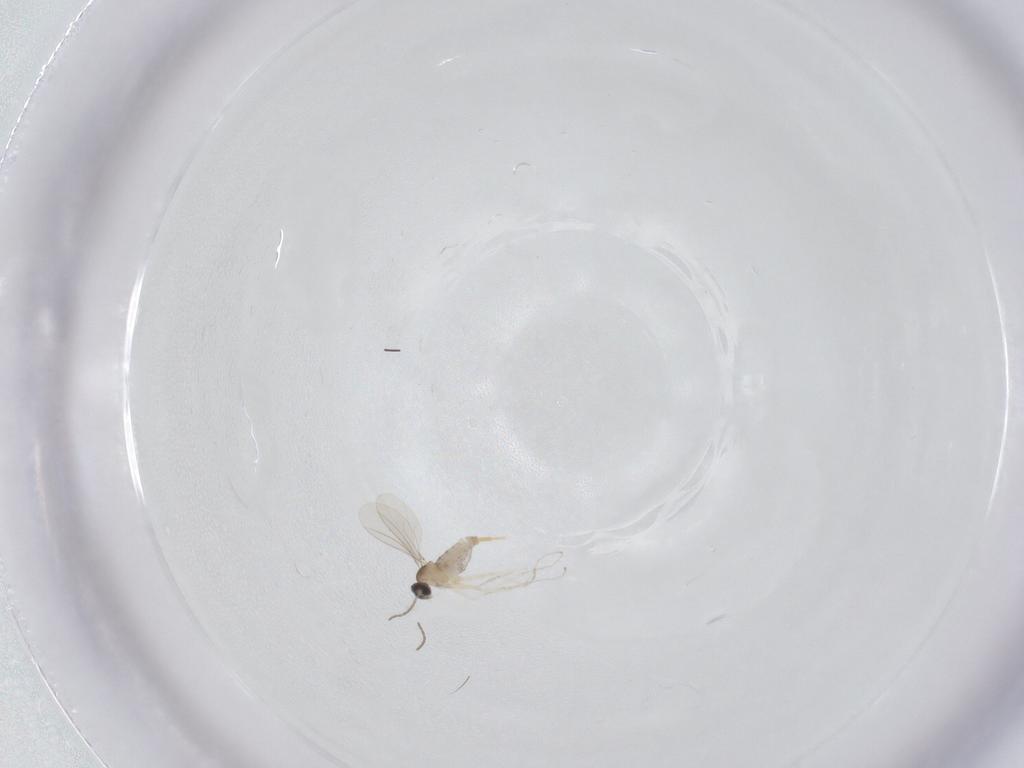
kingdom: Animalia
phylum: Arthropoda
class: Insecta
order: Diptera
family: Cecidomyiidae
